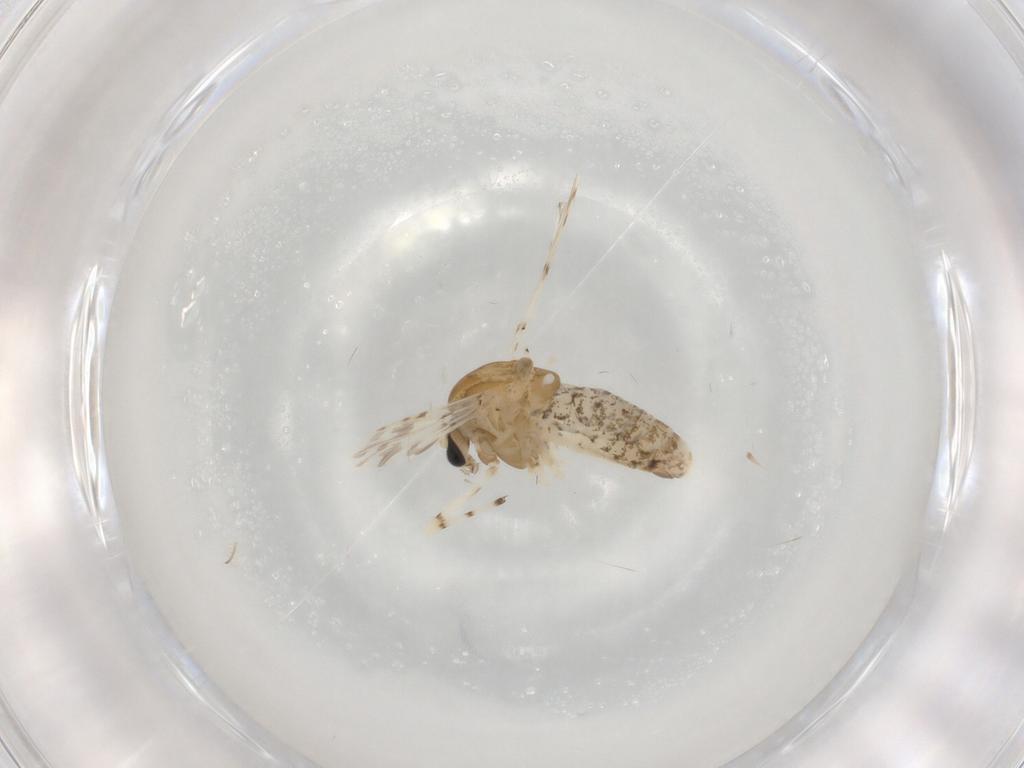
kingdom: Animalia
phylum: Arthropoda
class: Insecta
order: Diptera
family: Chironomidae
